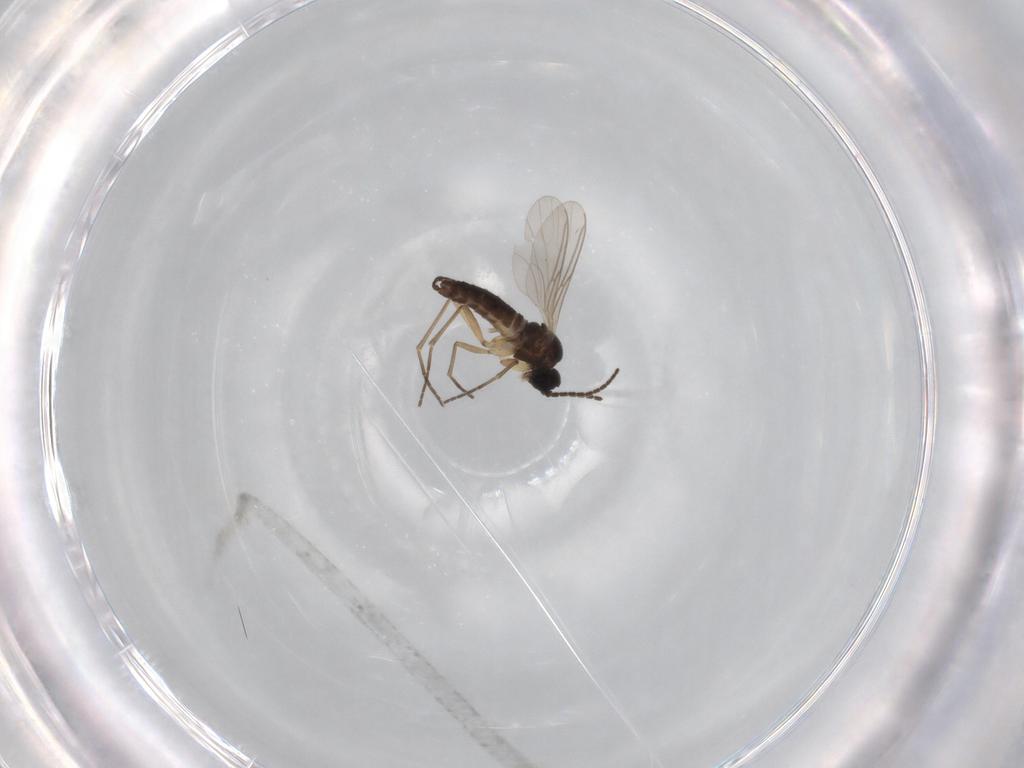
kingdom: Animalia
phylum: Arthropoda
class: Insecta
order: Diptera
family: Sciaridae
